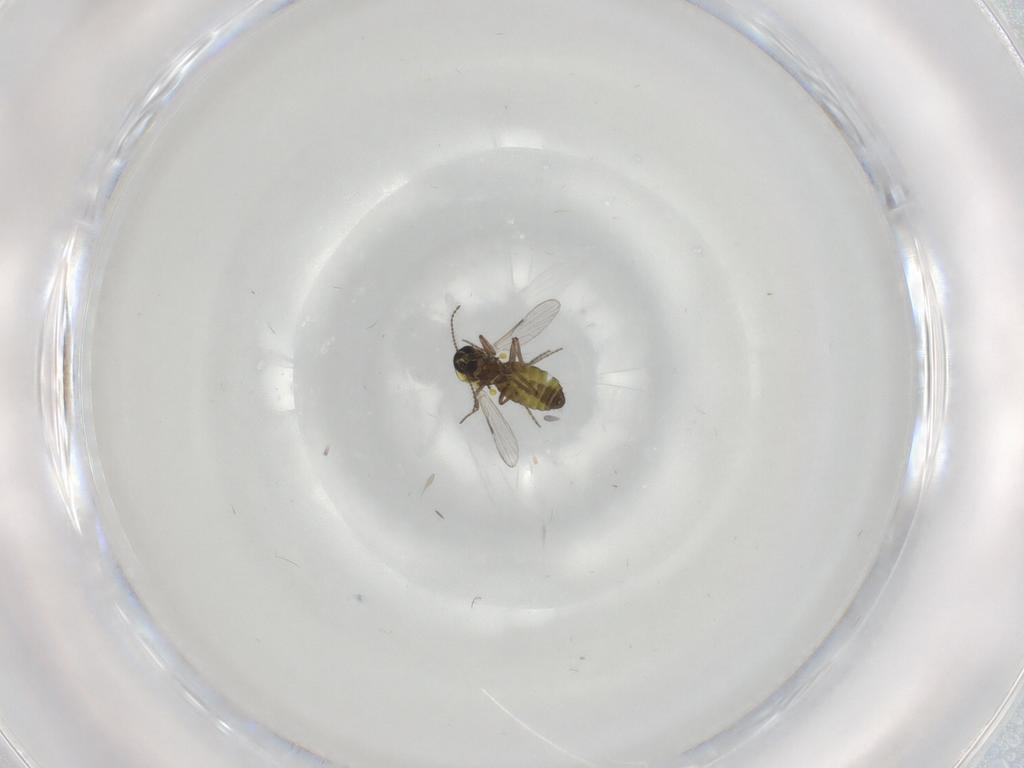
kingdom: Animalia
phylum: Arthropoda
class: Insecta
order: Diptera
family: Ceratopogonidae
